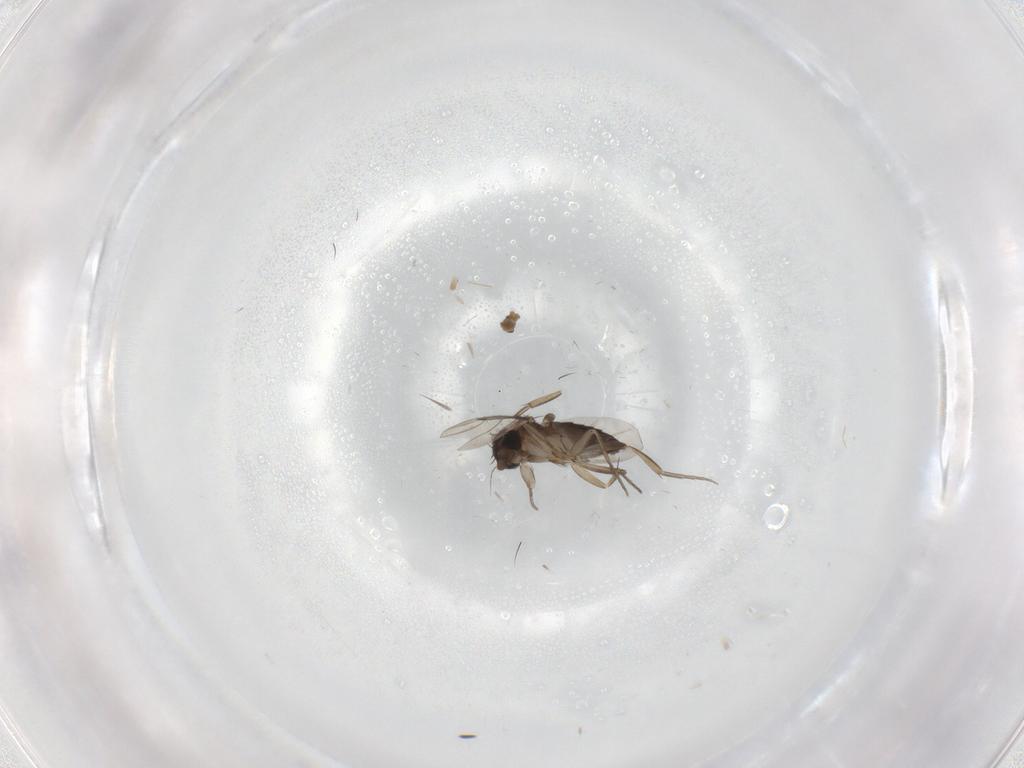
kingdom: Animalia
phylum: Arthropoda
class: Insecta
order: Diptera
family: Phoridae
